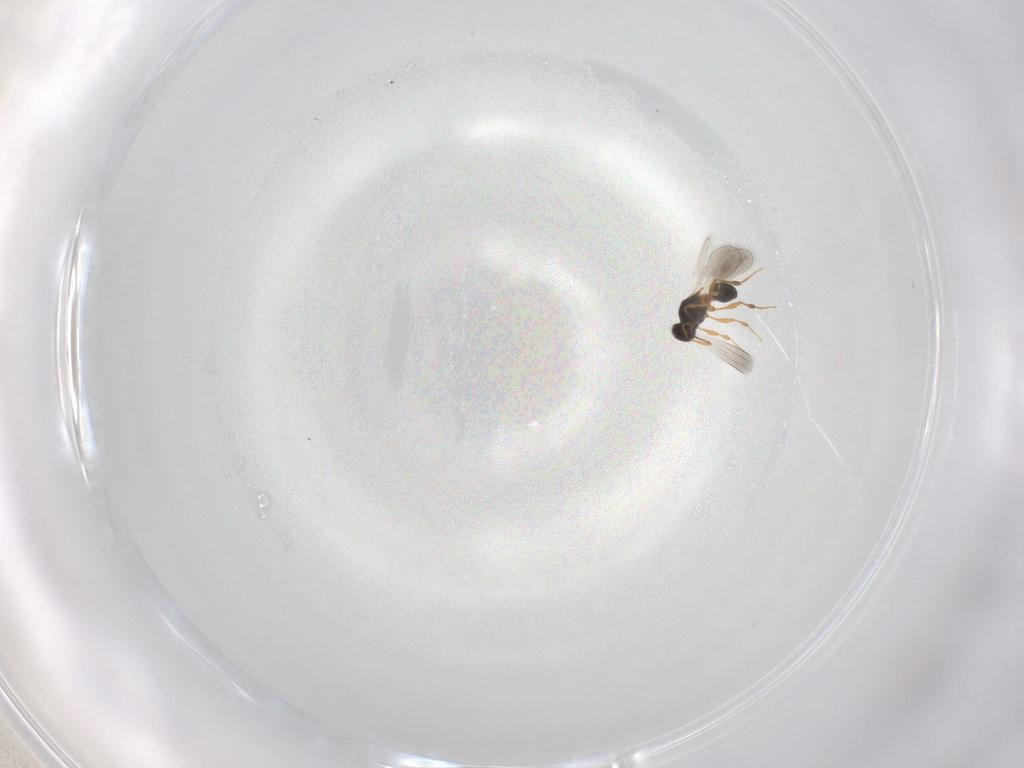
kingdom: Animalia
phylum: Arthropoda
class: Insecta
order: Hymenoptera
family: Platygastridae
